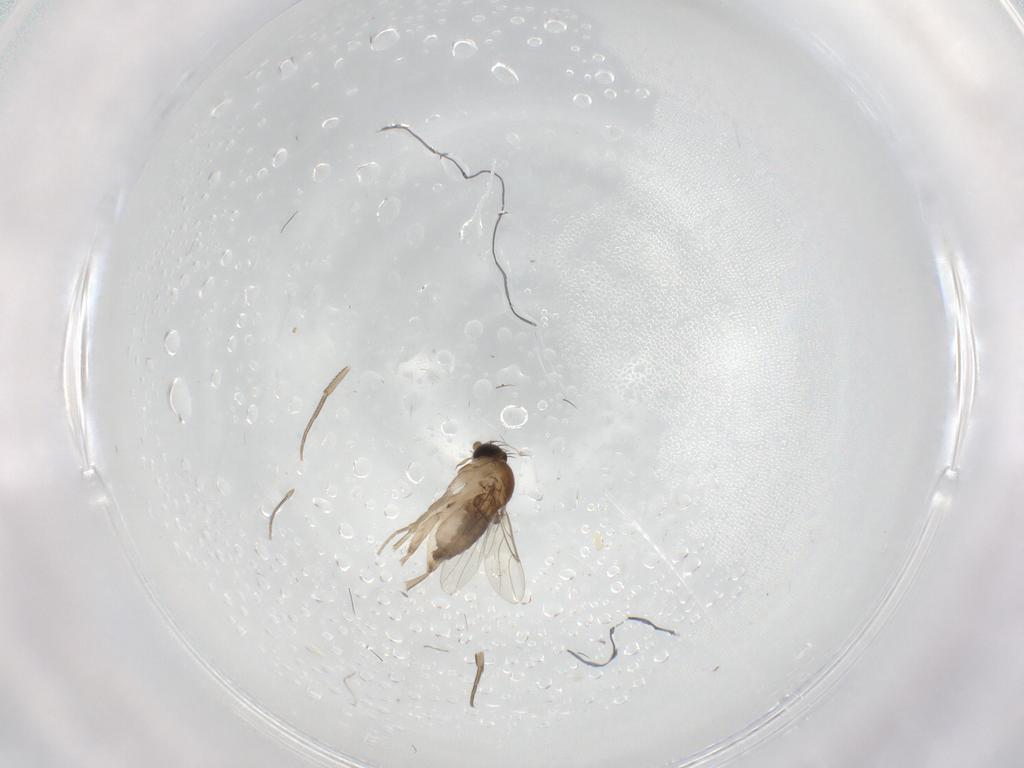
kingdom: Animalia
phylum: Arthropoda
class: Insecta
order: Diptera
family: Phoridae
